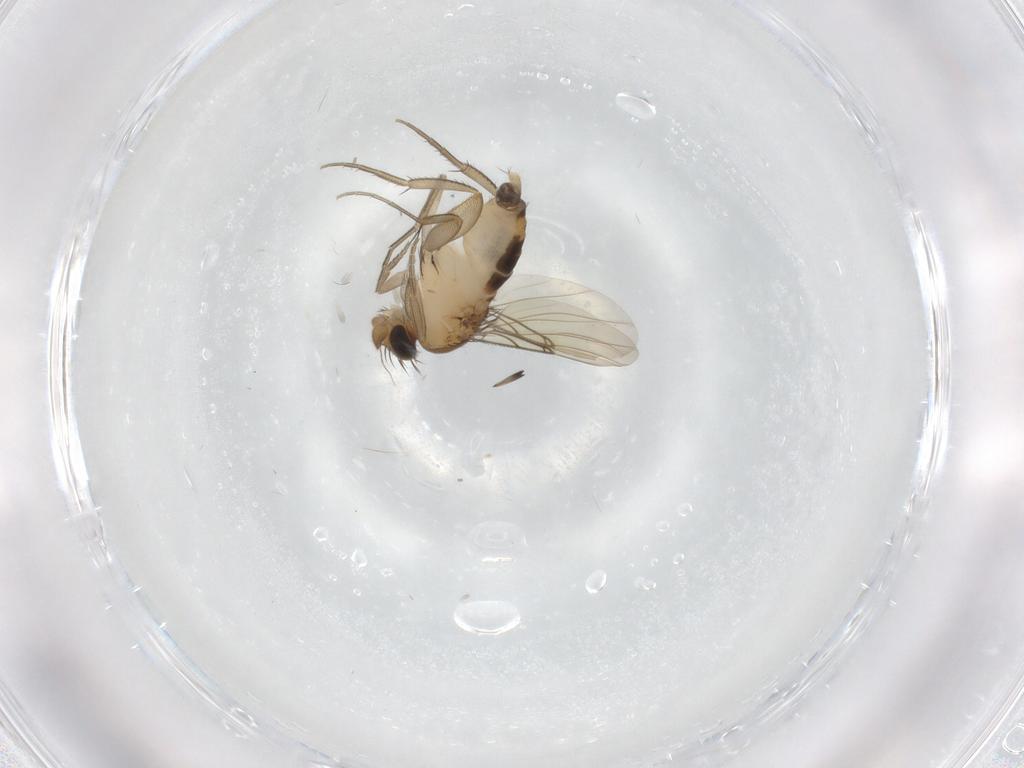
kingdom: Animalia
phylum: Arthropoda
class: Insecta
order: Diptera
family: Phoridae
